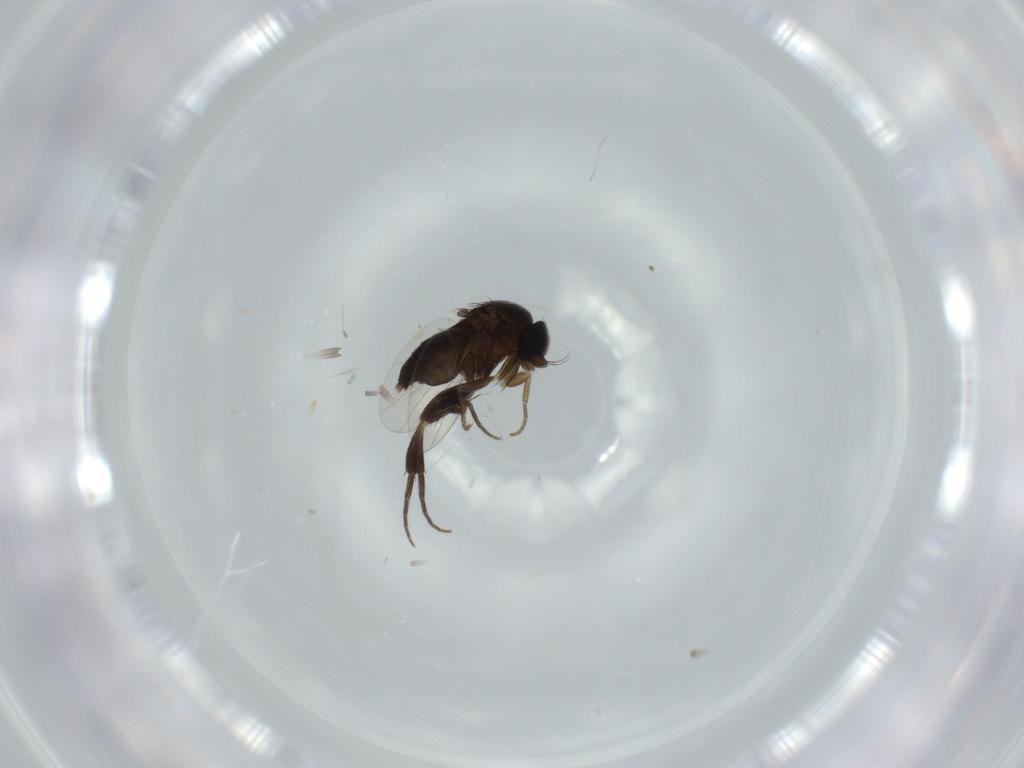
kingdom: Animalia
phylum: Arthropoda
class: Insecta
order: Diptera
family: Phoridae
